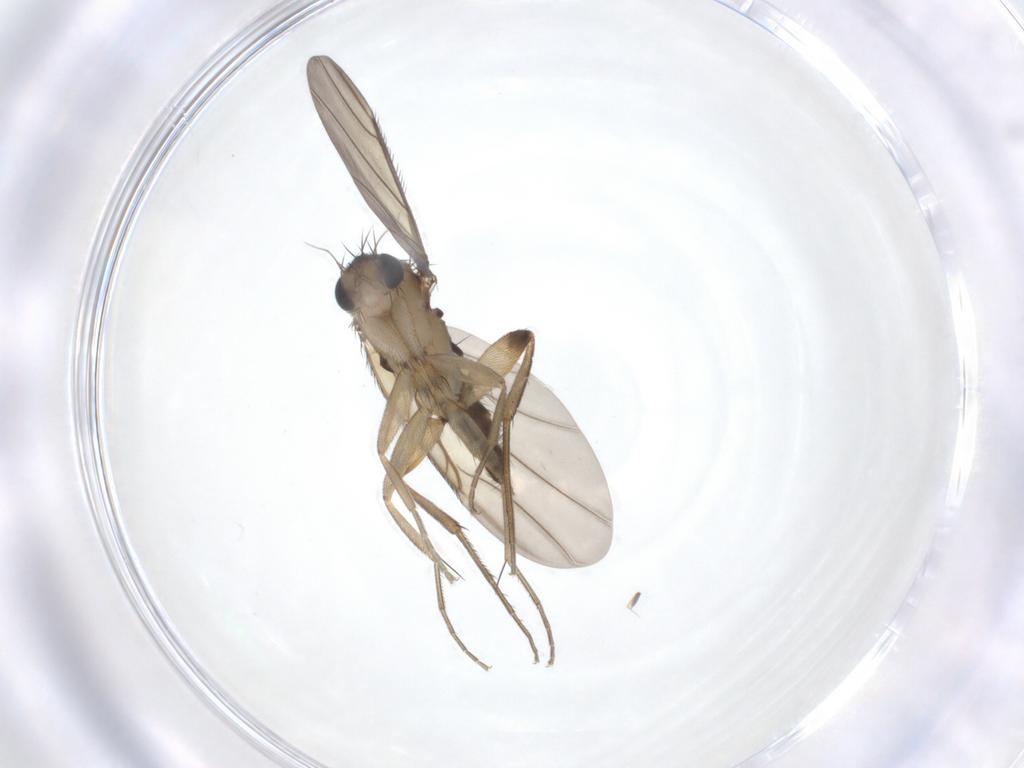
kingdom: Animalia
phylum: Arthropoda
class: Insecta
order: Diptera
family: Phoridae
